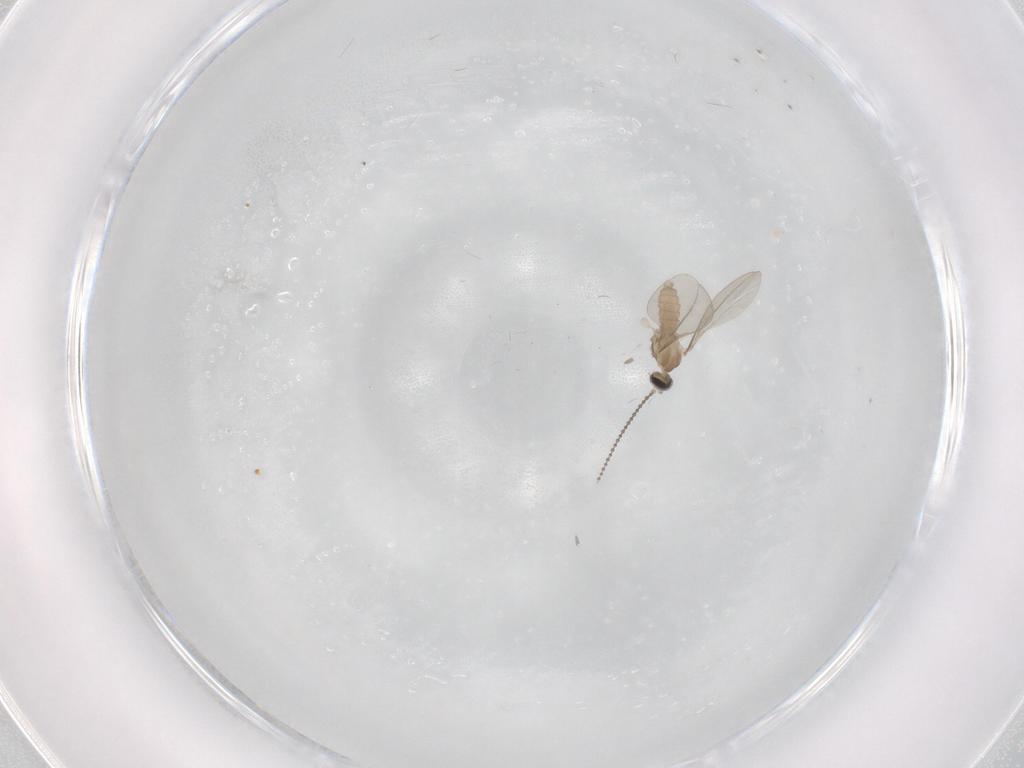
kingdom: Animalia
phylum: Arthropoda
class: Insecta
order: Diptera
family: Cecidomyiidae
